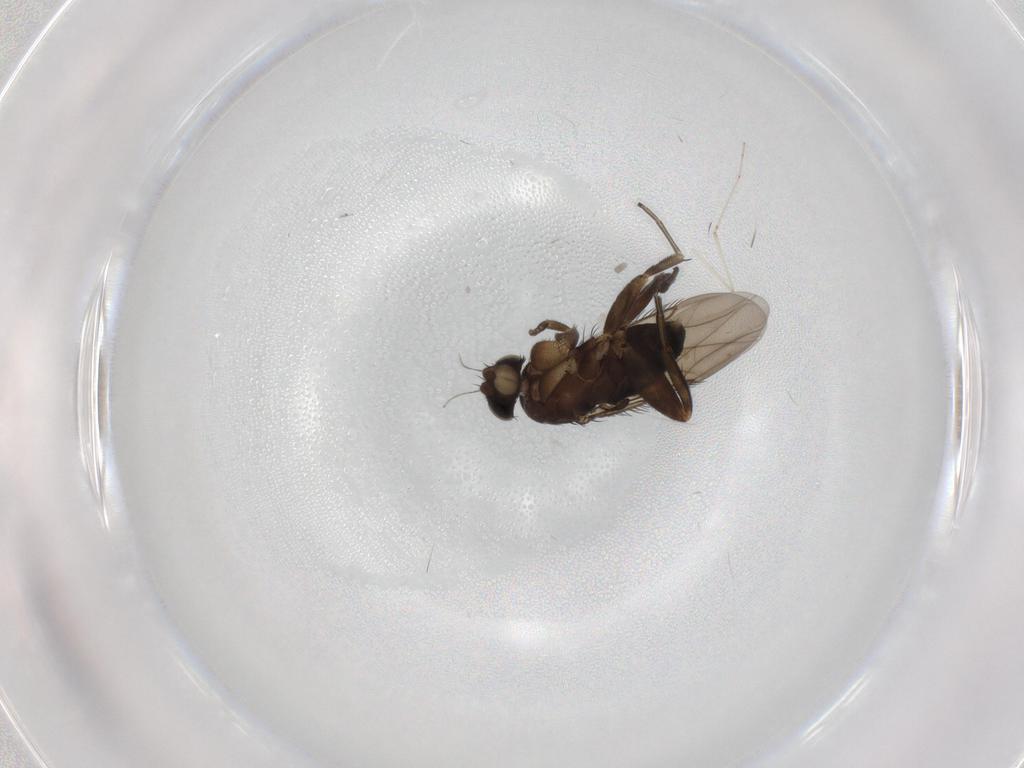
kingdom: Animalia
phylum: Arthropoda
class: Insecta
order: Diptera
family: Phoridae
